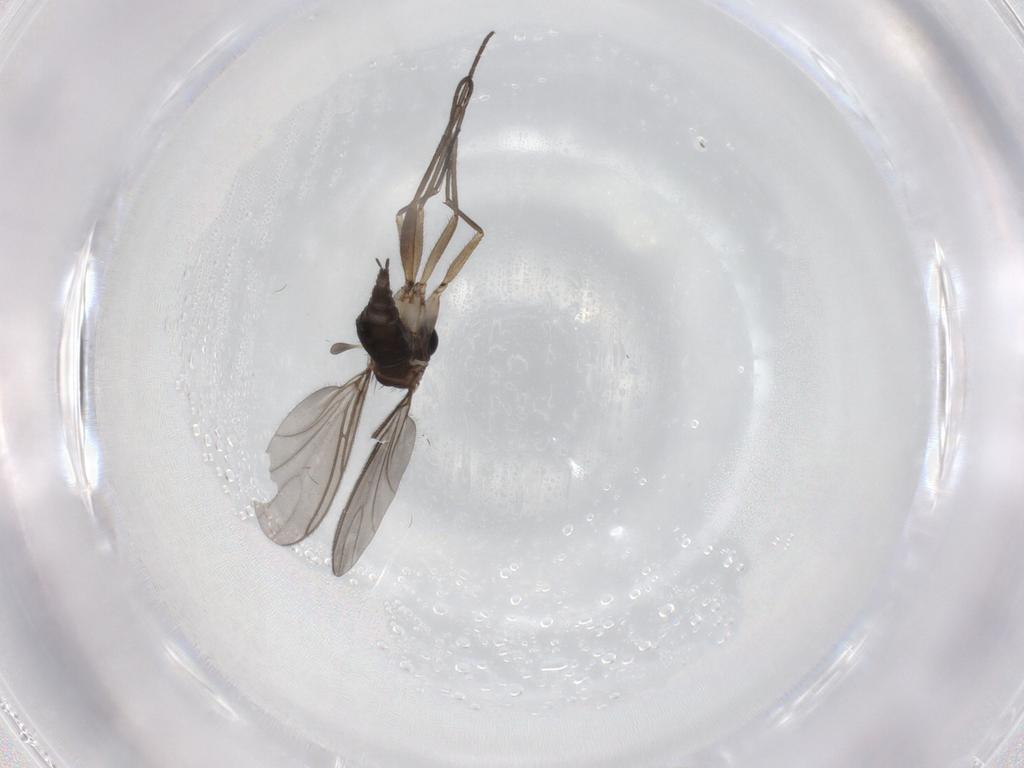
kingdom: Animalia
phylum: Arthropoda
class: Insecta
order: Diptera
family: Sciaridae
